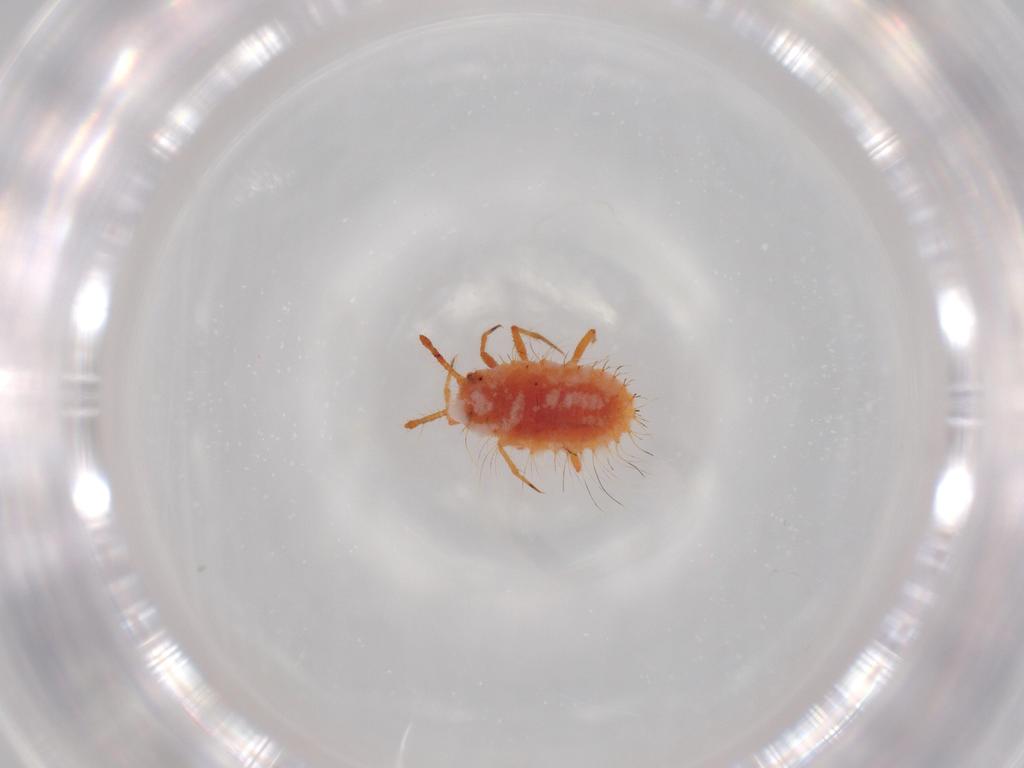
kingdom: Animalia
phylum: Arthropoda
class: Insecta
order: Hemiptera
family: Coccoidea_incertae_sedis
